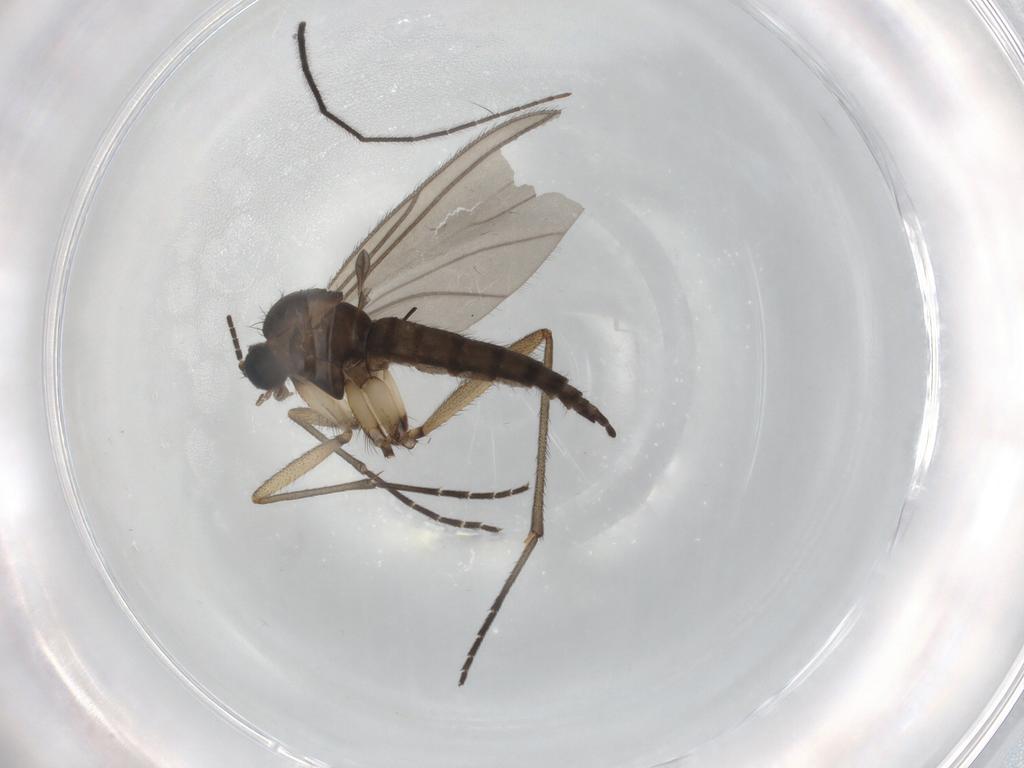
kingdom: Animalia
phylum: Arthropoda
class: Insecta
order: Diptera
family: Sciaridae
